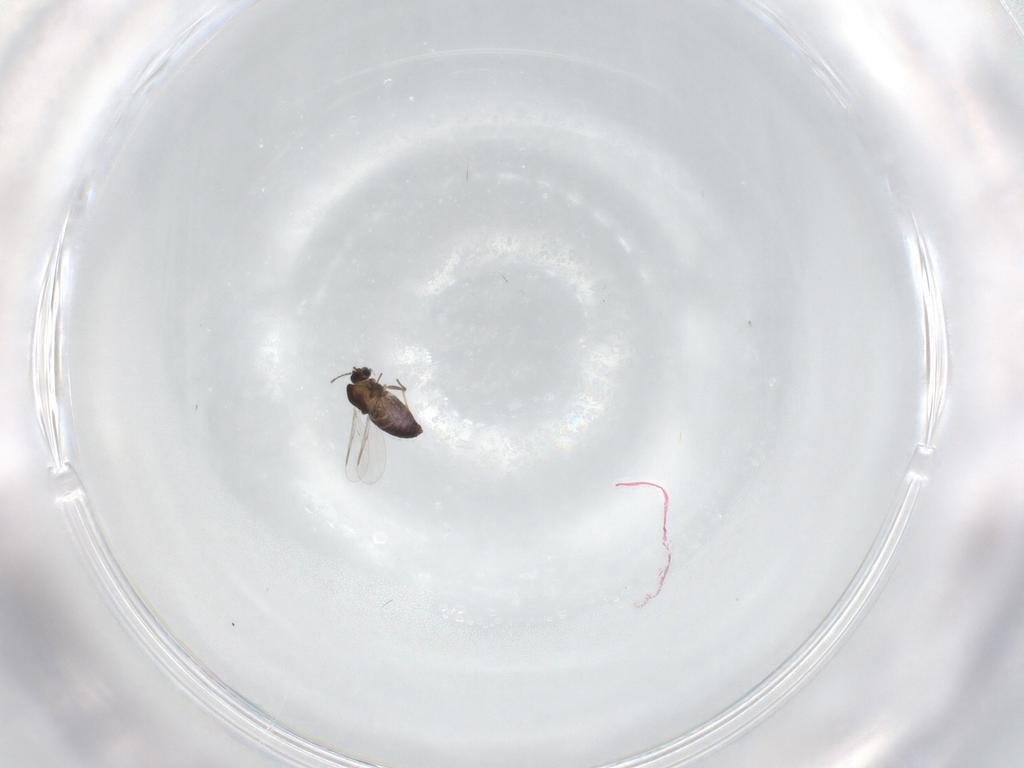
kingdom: Animalia
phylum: Arthropoda
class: Insecta
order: Diptera
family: Chironomidae
